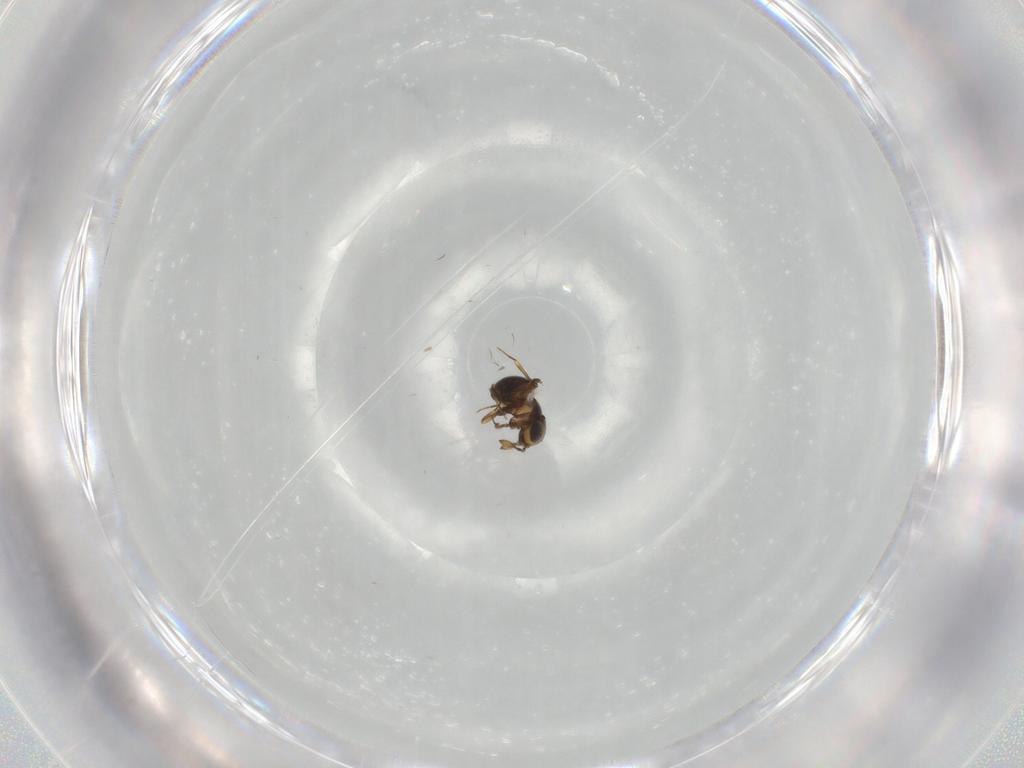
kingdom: Animalia
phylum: Arthropoda
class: Insecta
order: Hymenoptera
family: Scelionidae
